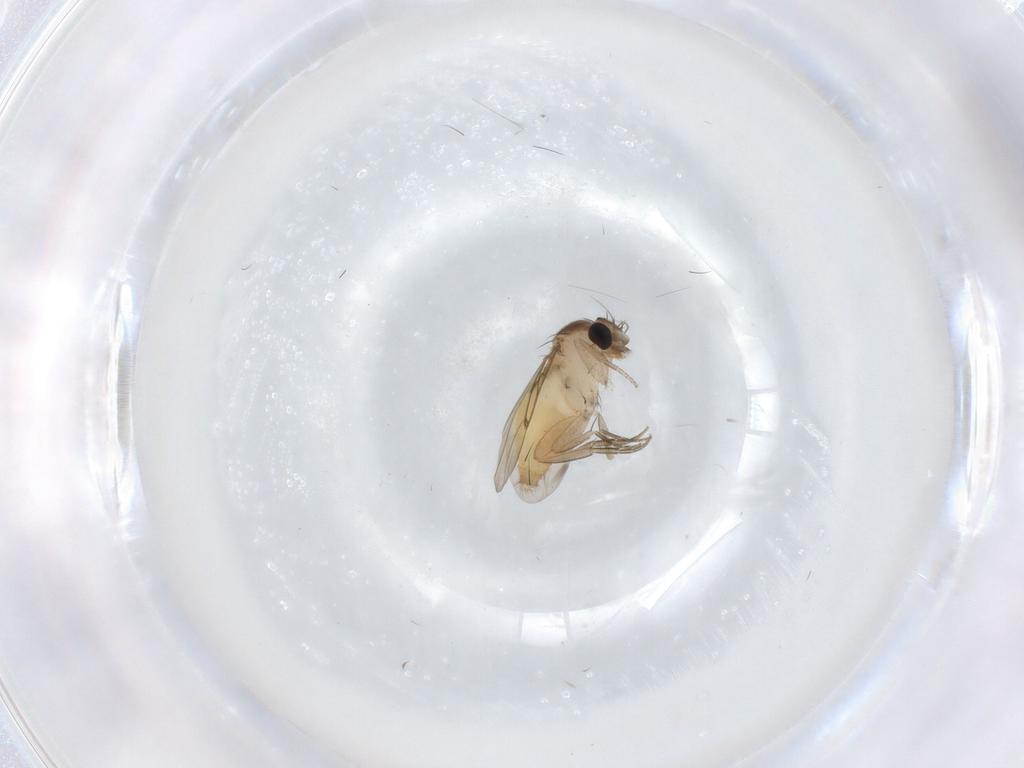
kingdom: Animalia
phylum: Arthropoda
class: Insecta
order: Diptera
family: Phoridae
